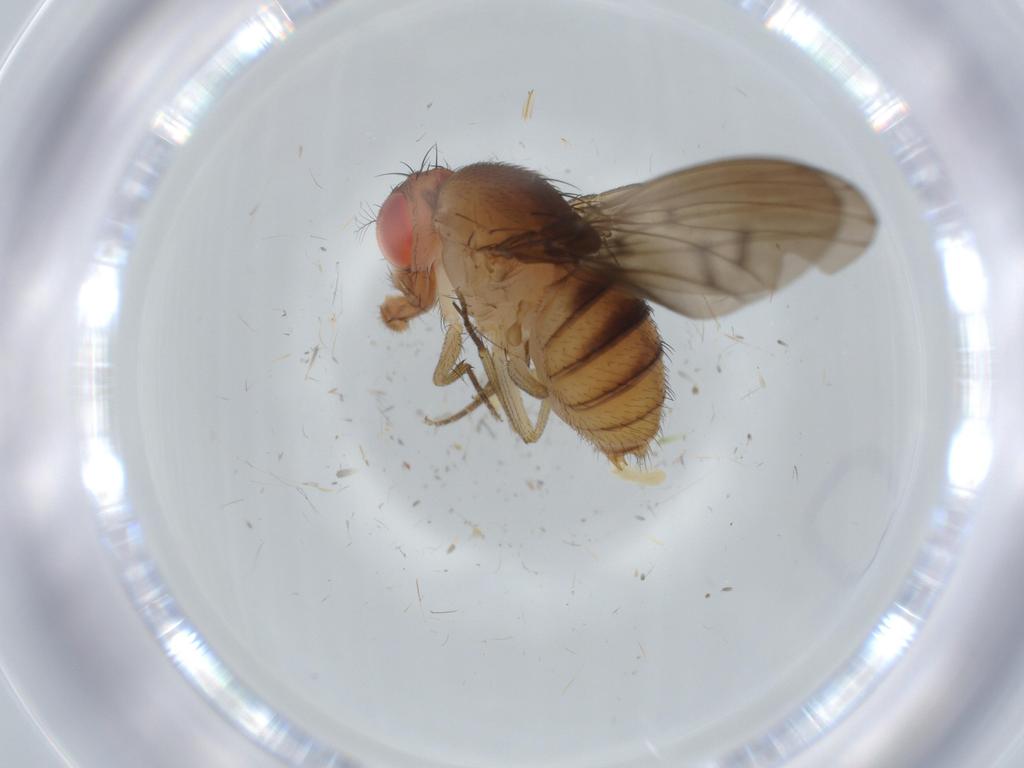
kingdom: Animalia
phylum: Arthropoda
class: Insecta
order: Diptera
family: Drosophilidae
